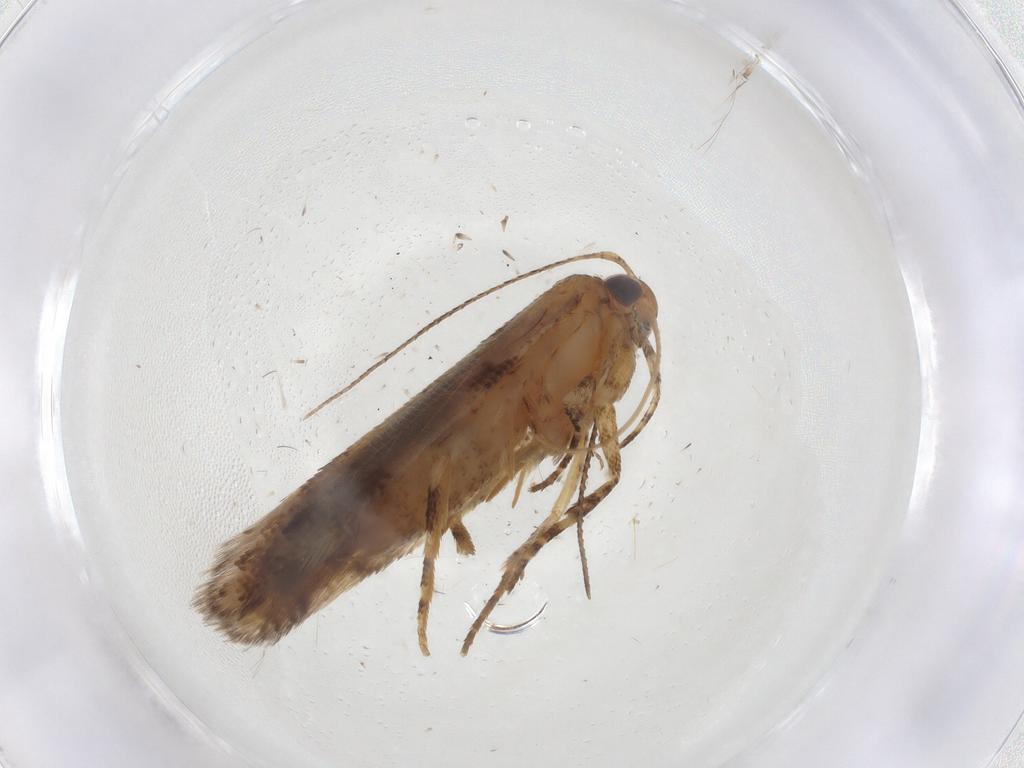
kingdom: Animalia
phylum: Arthropoda
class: Insecta
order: Lepidoptera
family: Gelechiidae
